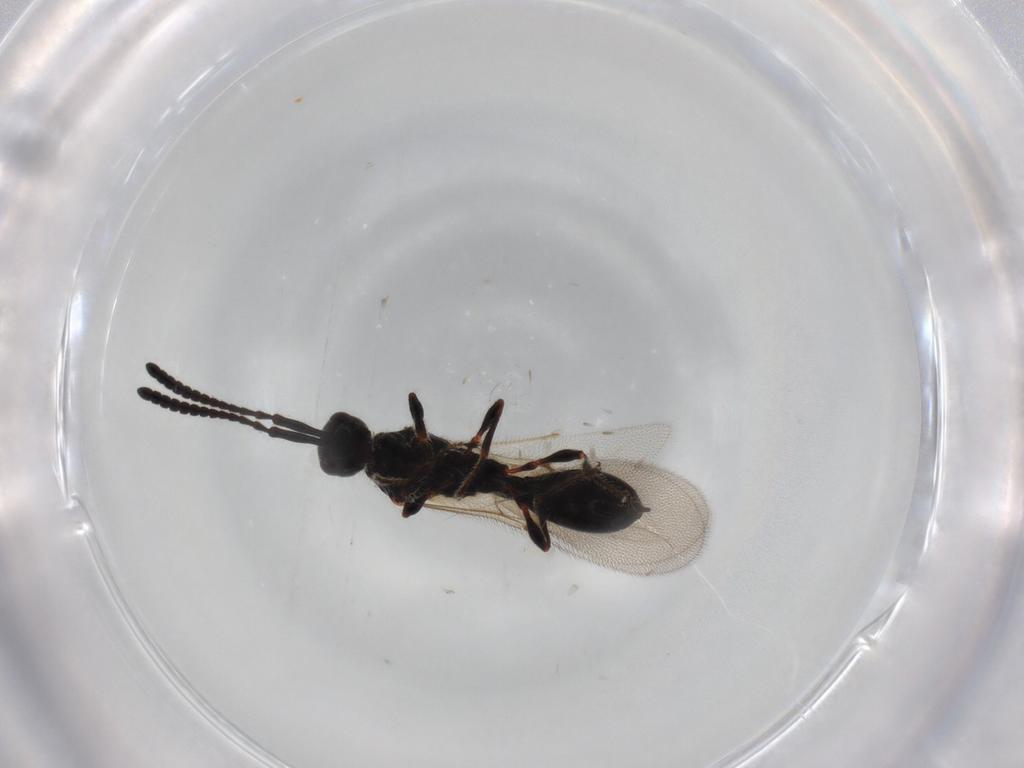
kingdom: Animalia
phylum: Arthropoda
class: Insecta
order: Hymenoptera
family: Diapriidae
